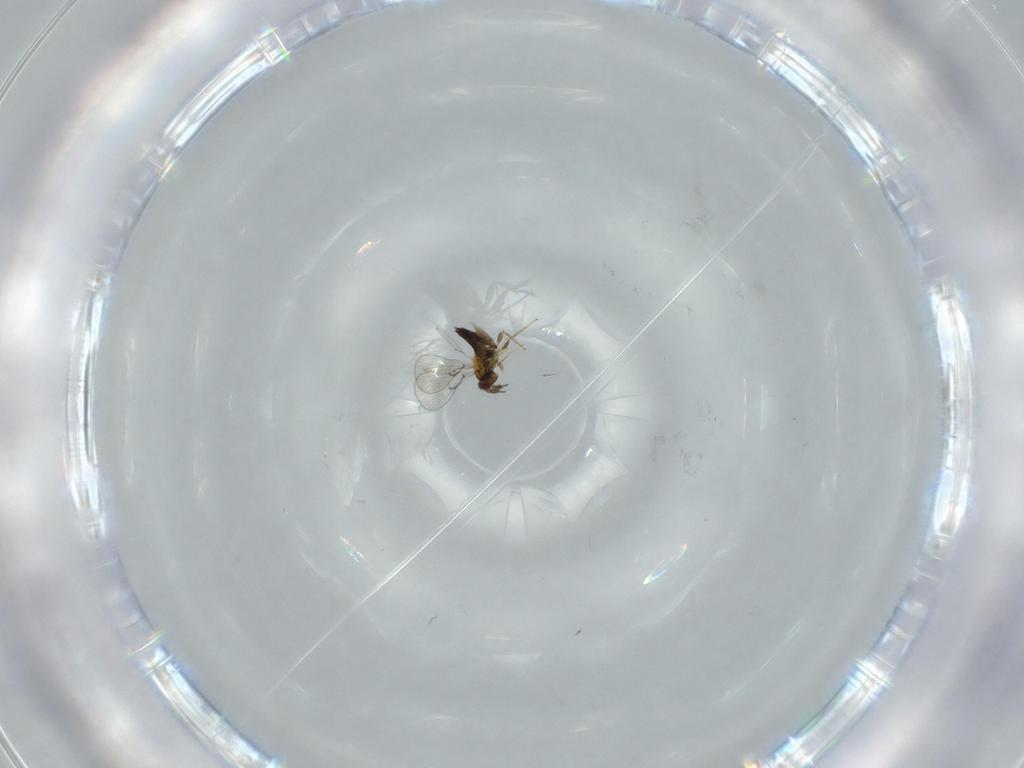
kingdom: Animalia
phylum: Arthropoda
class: Insecta
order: Hymenoptera
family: Trichogrammatidae
